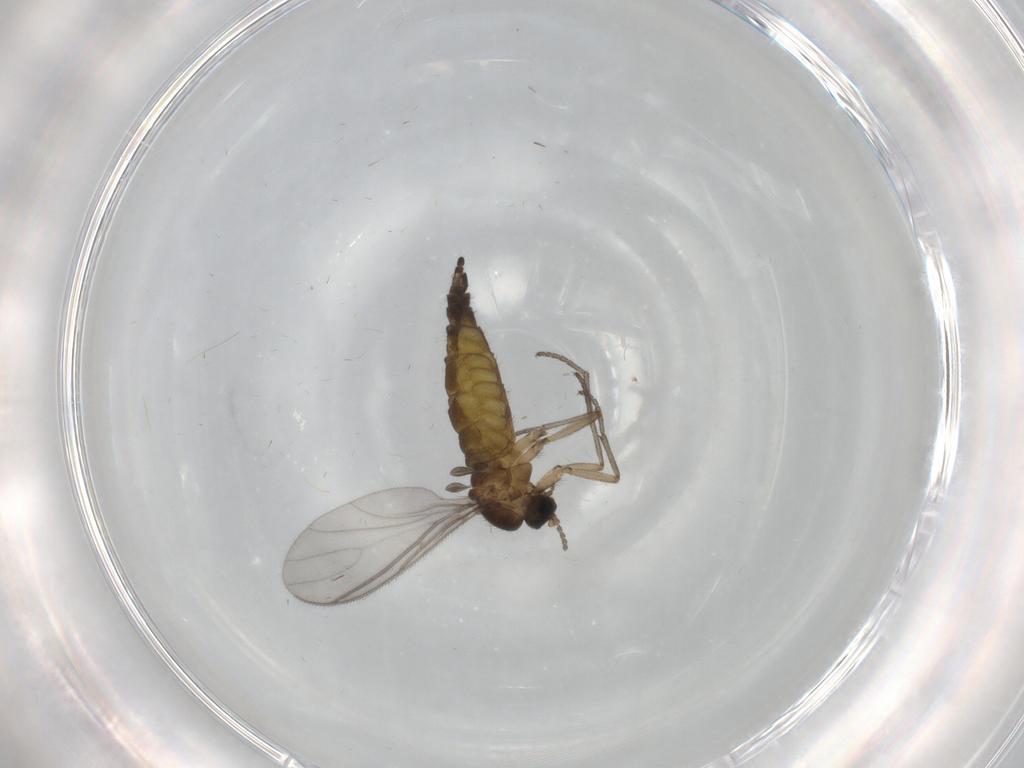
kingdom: Animalia
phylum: Arthropoda
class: Insecta
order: Diptera
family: Sciaridae
